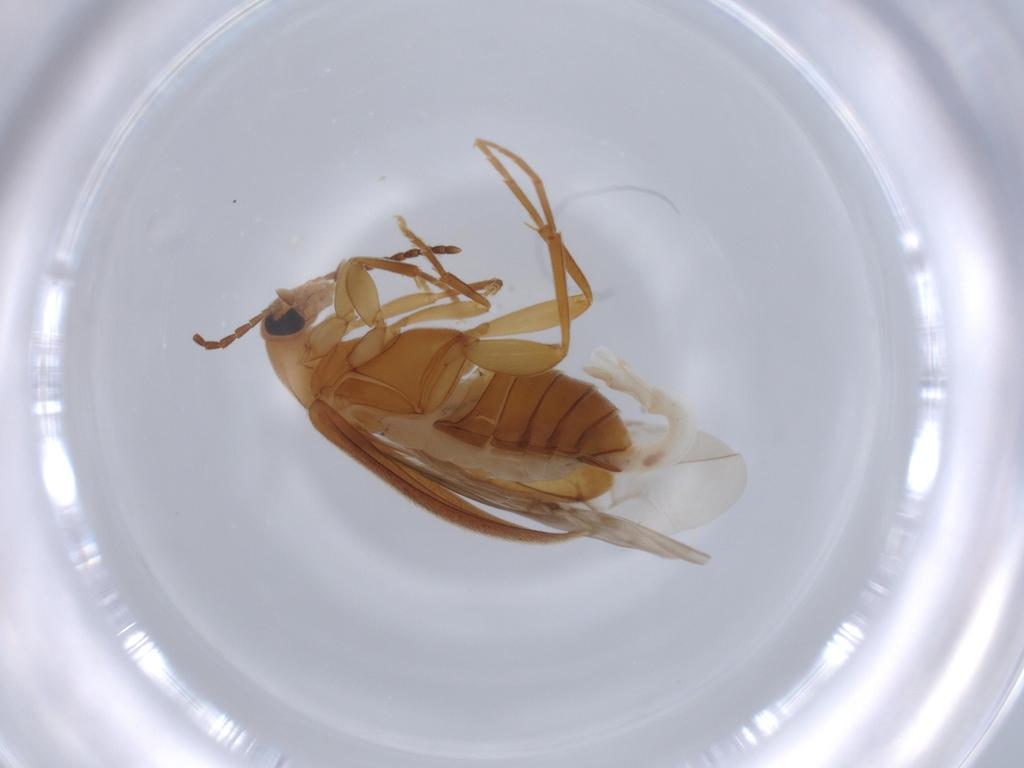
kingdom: Animalia
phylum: Arthropoda
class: Insecta
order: Coleoptera
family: Scraptiidae
